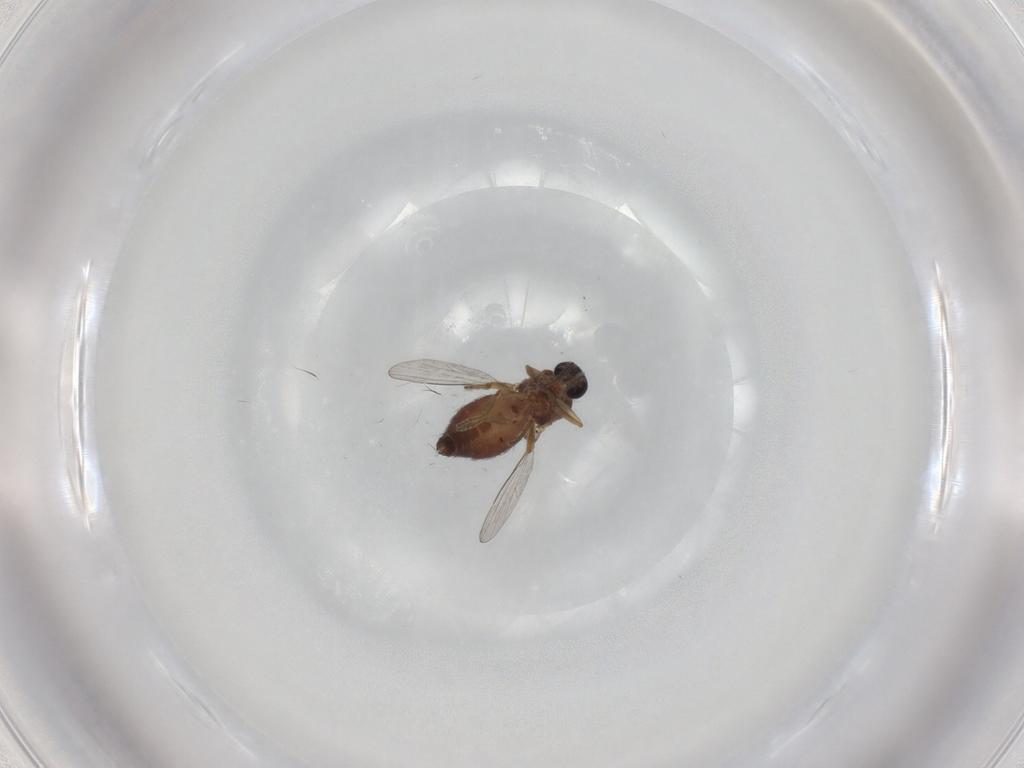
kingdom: Animalia
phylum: Arthropoda
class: Insecta
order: Diptera
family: Ceratopogonidae
